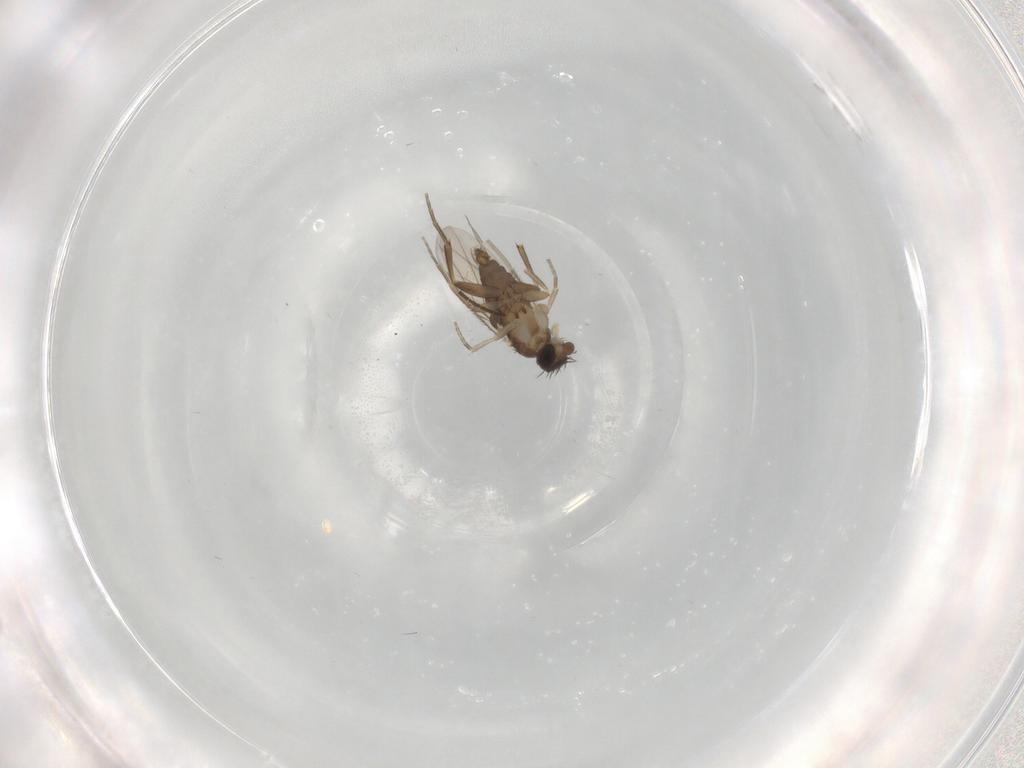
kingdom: Animalia
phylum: Arthropoda
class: Insecta
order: Diptera
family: Phoridae
